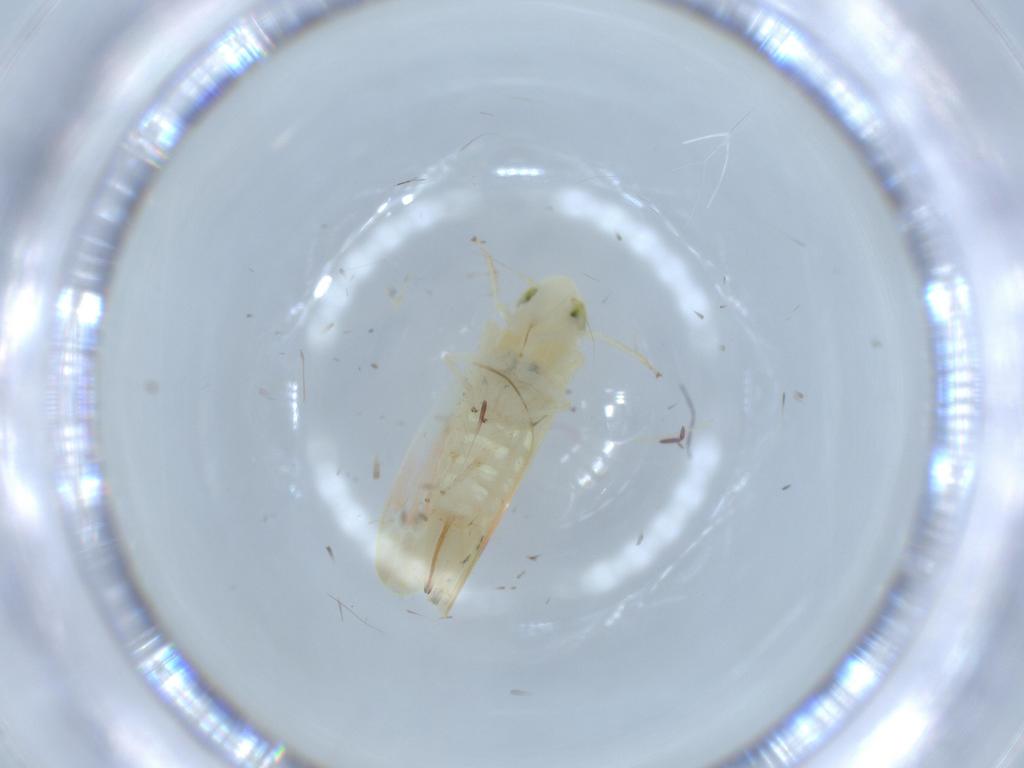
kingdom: Animalia
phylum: Arthropoda
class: Insecta
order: Hemiptera
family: Cicadellidae
